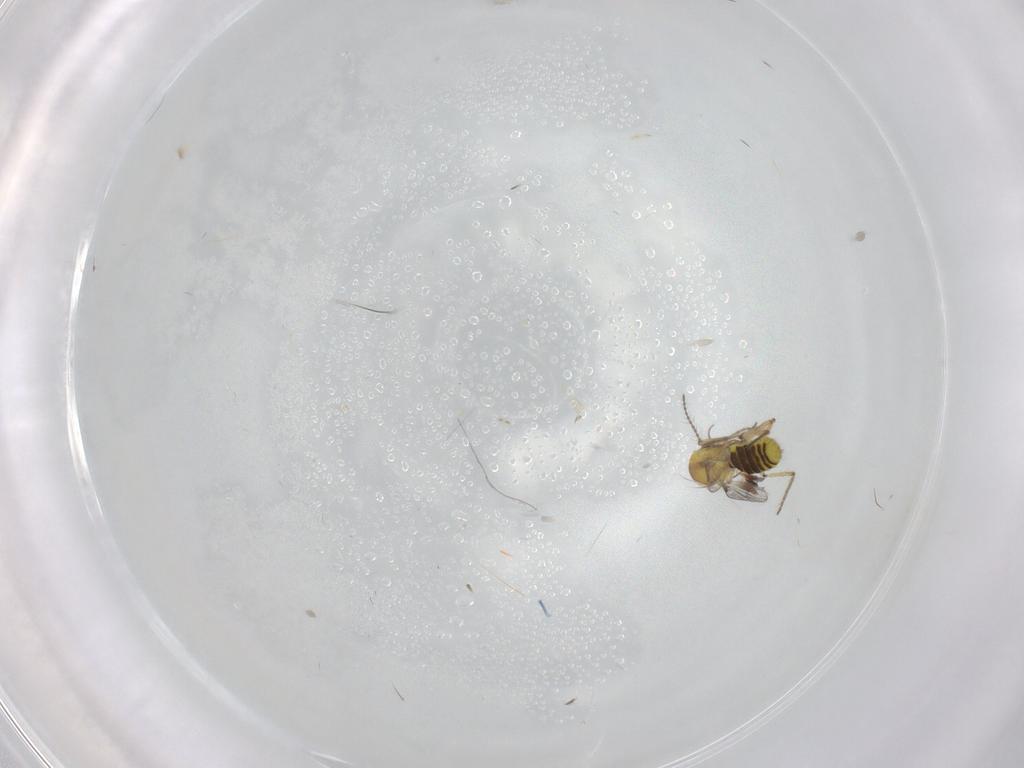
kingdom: Animalia
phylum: Arthropoda
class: Insecta
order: Diptera
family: Psychodidae
